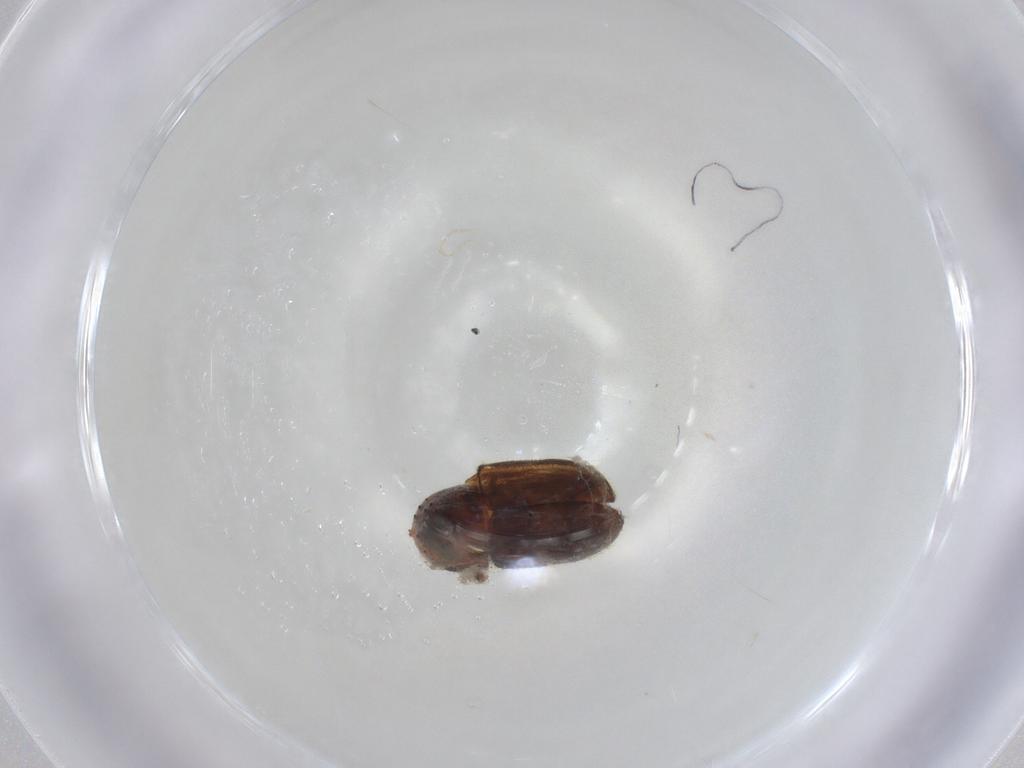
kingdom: Animalia
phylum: Arthropoda
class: Insecta
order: Coleoptera
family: Curculionidae
